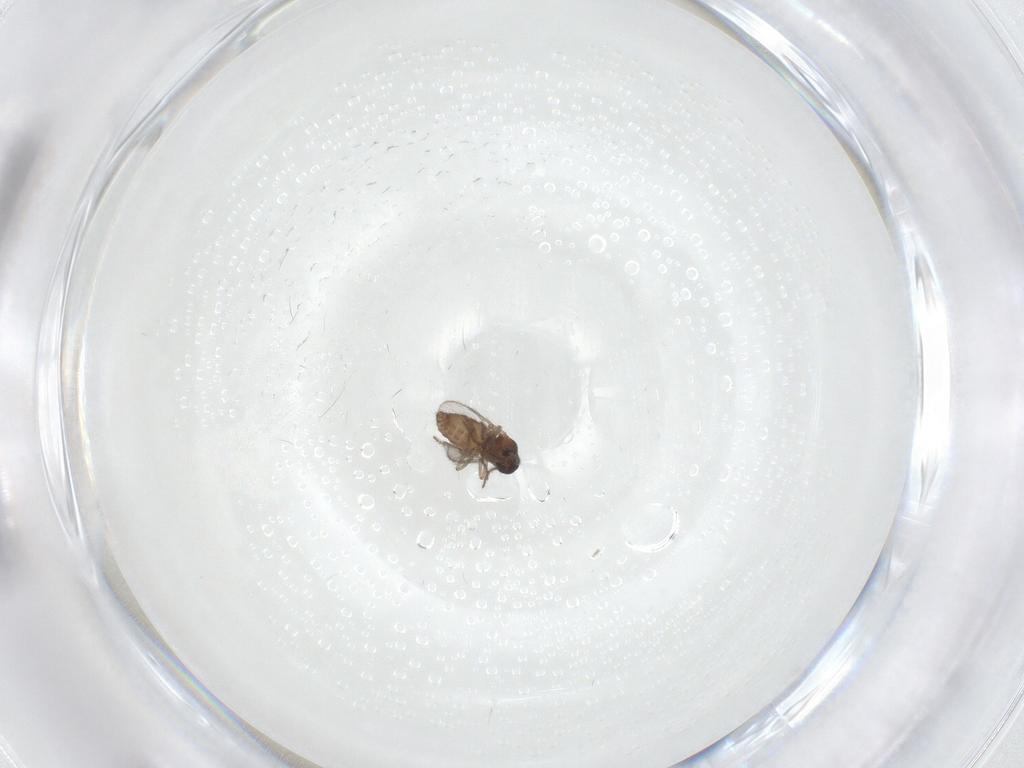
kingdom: Animalia
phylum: Arthropoda
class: Insecta
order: Diptera
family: Ceratopogonidae
